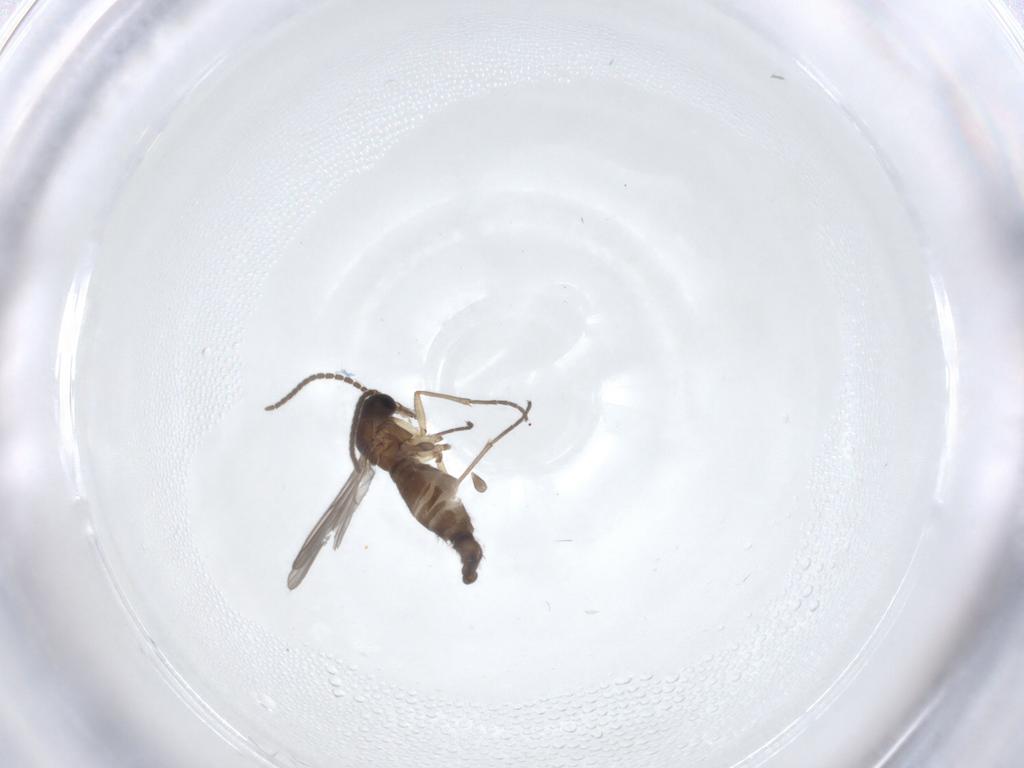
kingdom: Animalia
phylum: Arthropoda
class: Insecta
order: Diptera
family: Sciaridae
